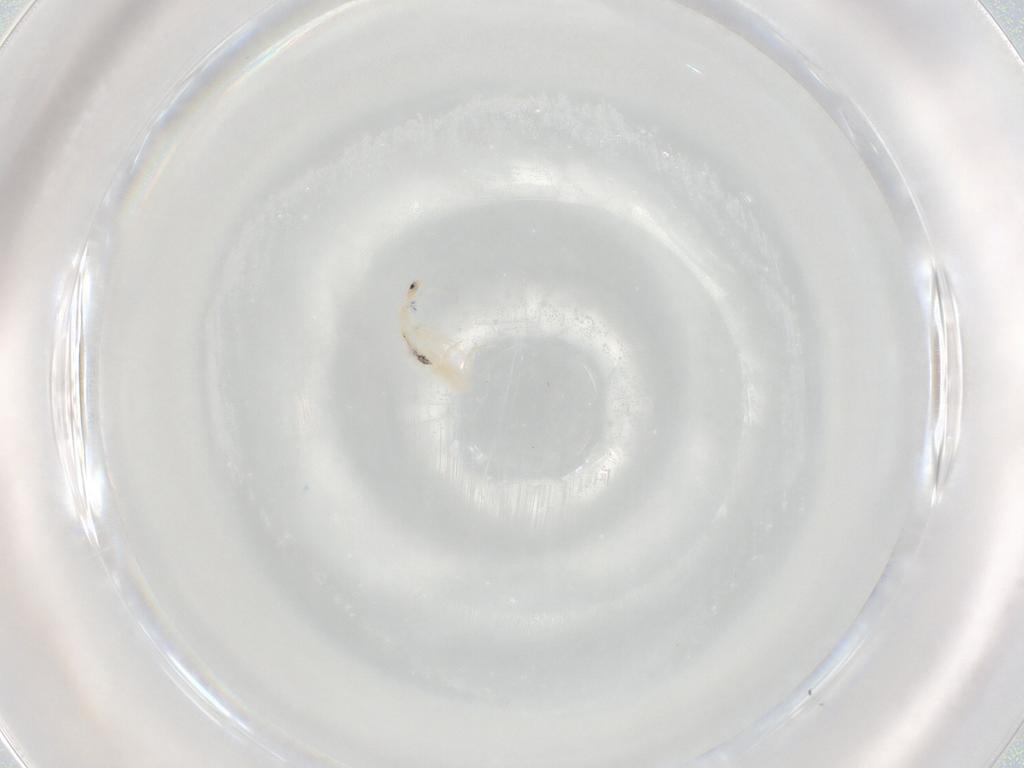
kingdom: Animalia
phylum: Arthropoda
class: Collembola
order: Entomobryomorpha
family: Entomobryidae
